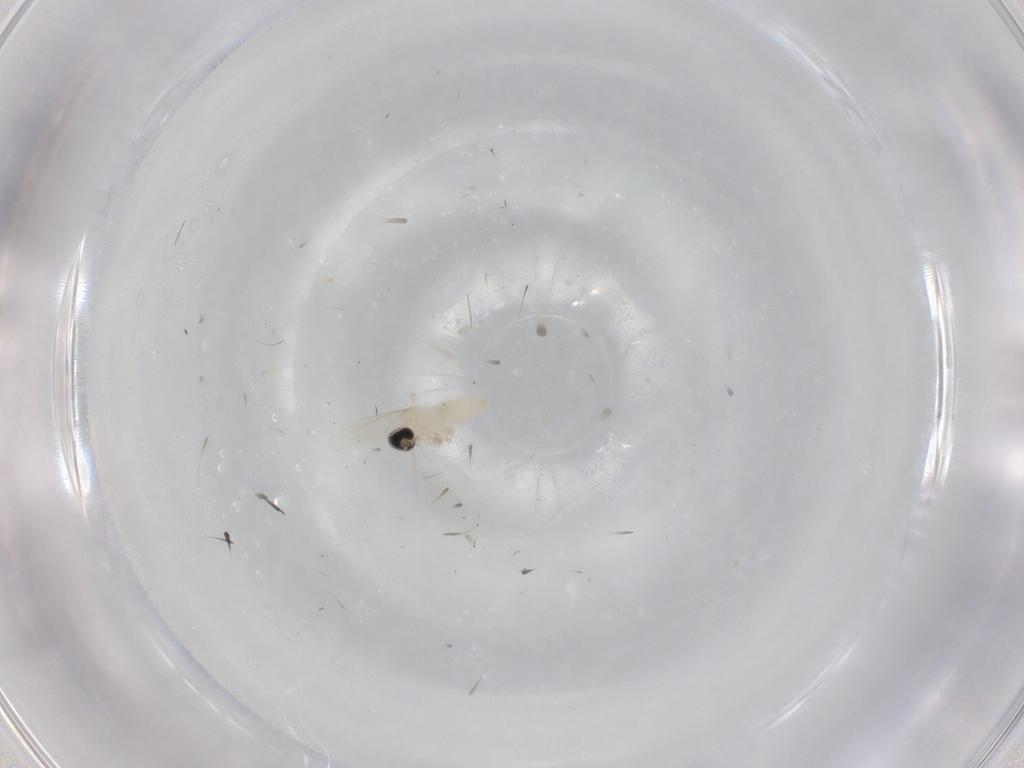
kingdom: Animalia
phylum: Arthropoda
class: Insecta
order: Diptera
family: Cecidomyiidae
